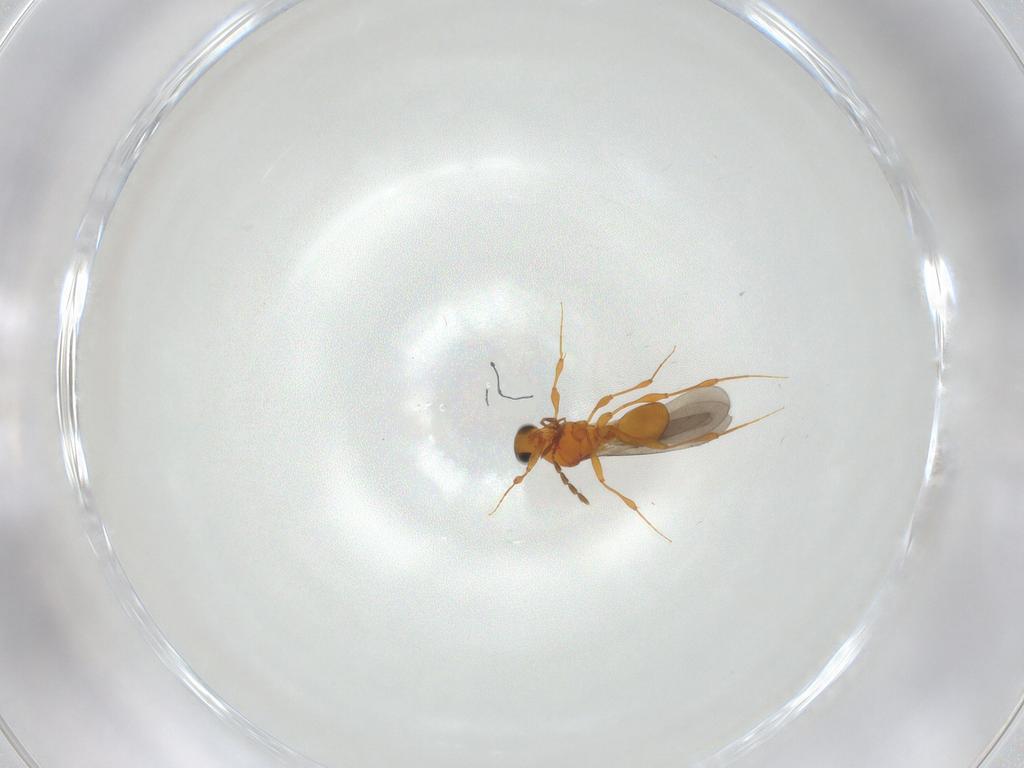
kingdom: Animalia
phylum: Arthropoda
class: Insecta
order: Hymenoptera
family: Platygastridae
